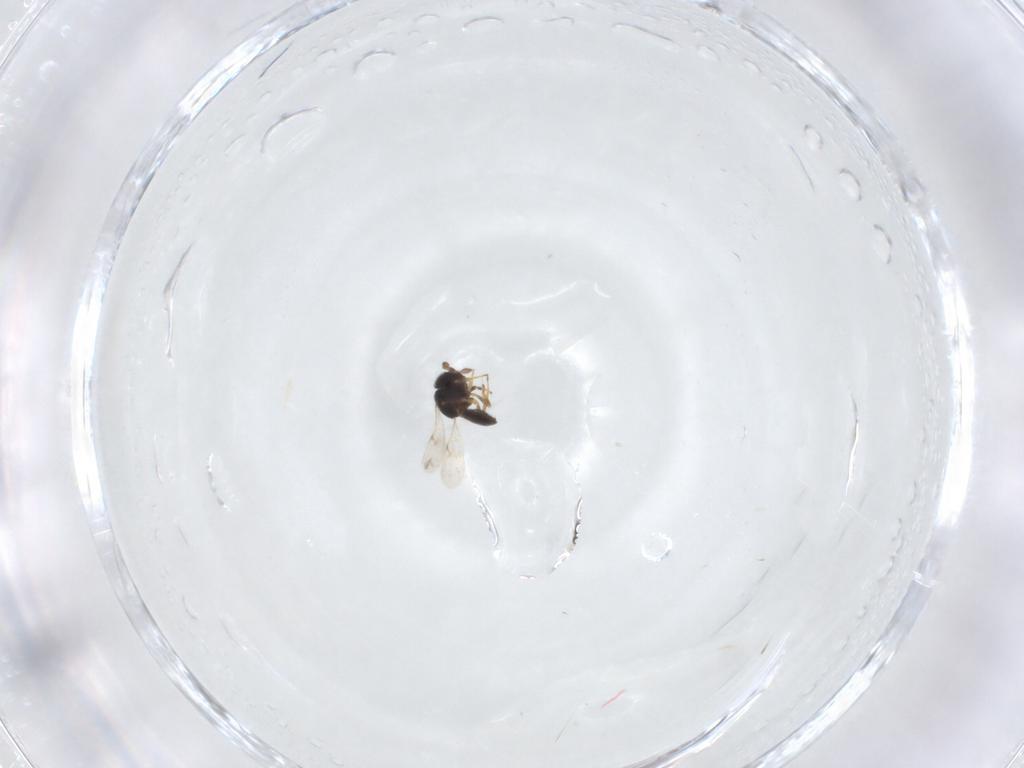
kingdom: Animalia
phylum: Arthropoda
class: Insecta
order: Hymenoptera
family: Scelionidae
